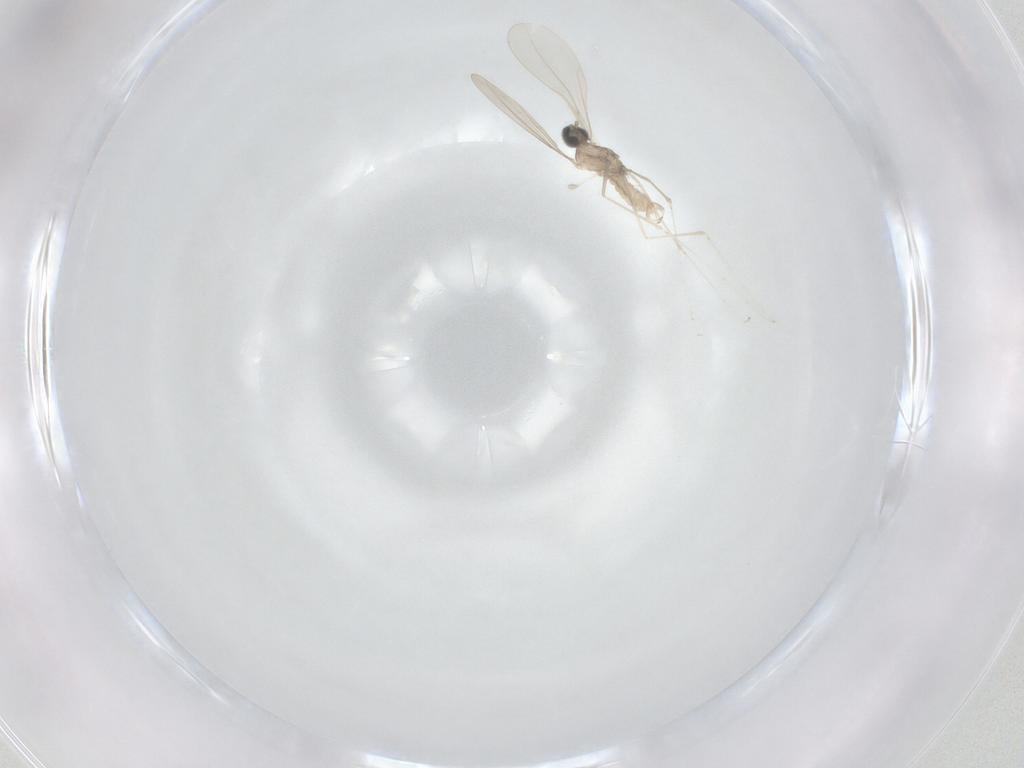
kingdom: Animalia
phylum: Arthropoda
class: Insecta
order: Diptera
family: Cecidomyiidae
